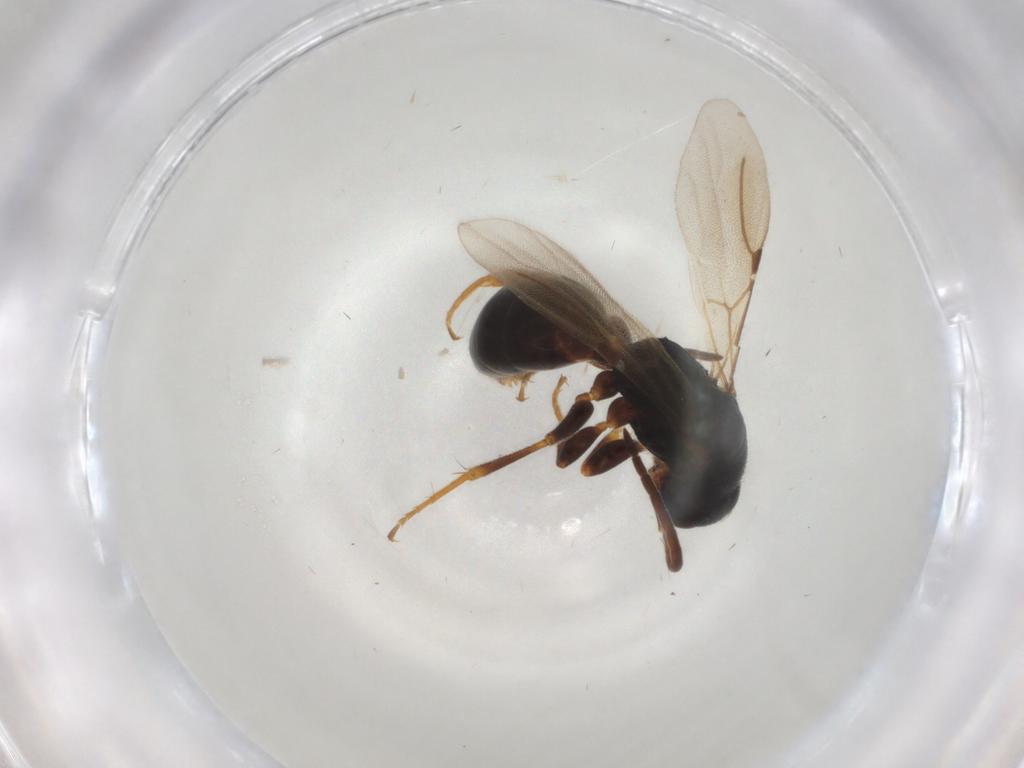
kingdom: Animalia
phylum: Arthropoda
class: Insecta
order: Hymenoptera
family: Bethylidae
